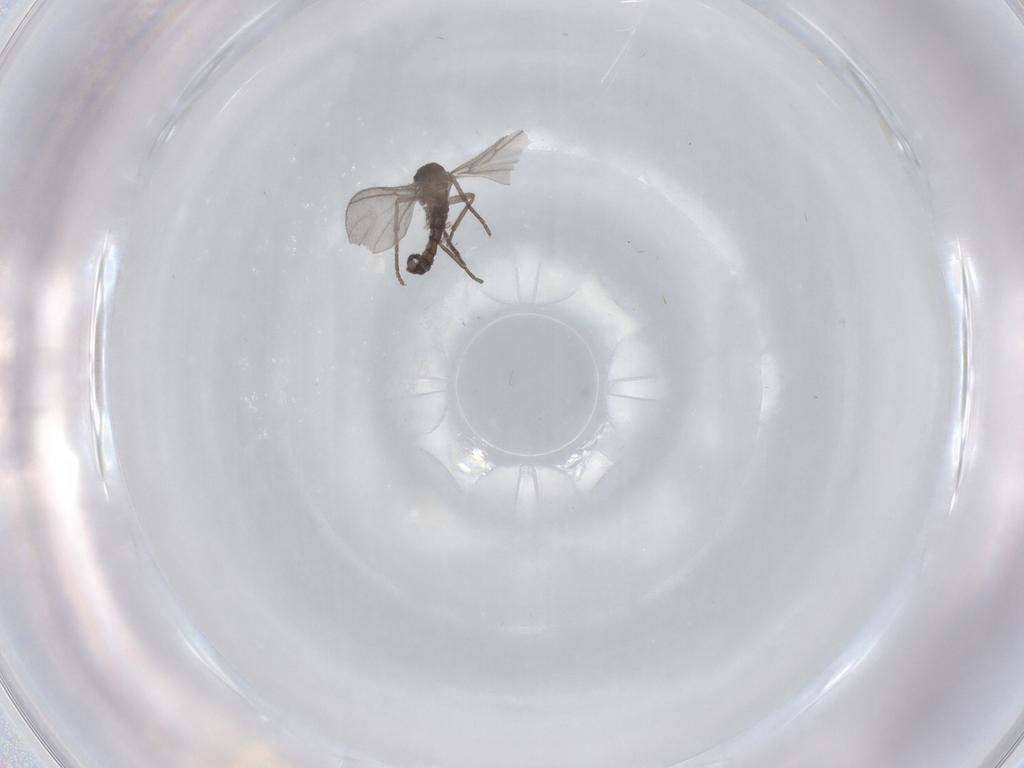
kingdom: Animalia
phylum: Arthropoda
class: Insecta
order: Diptera
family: Sciaridae
